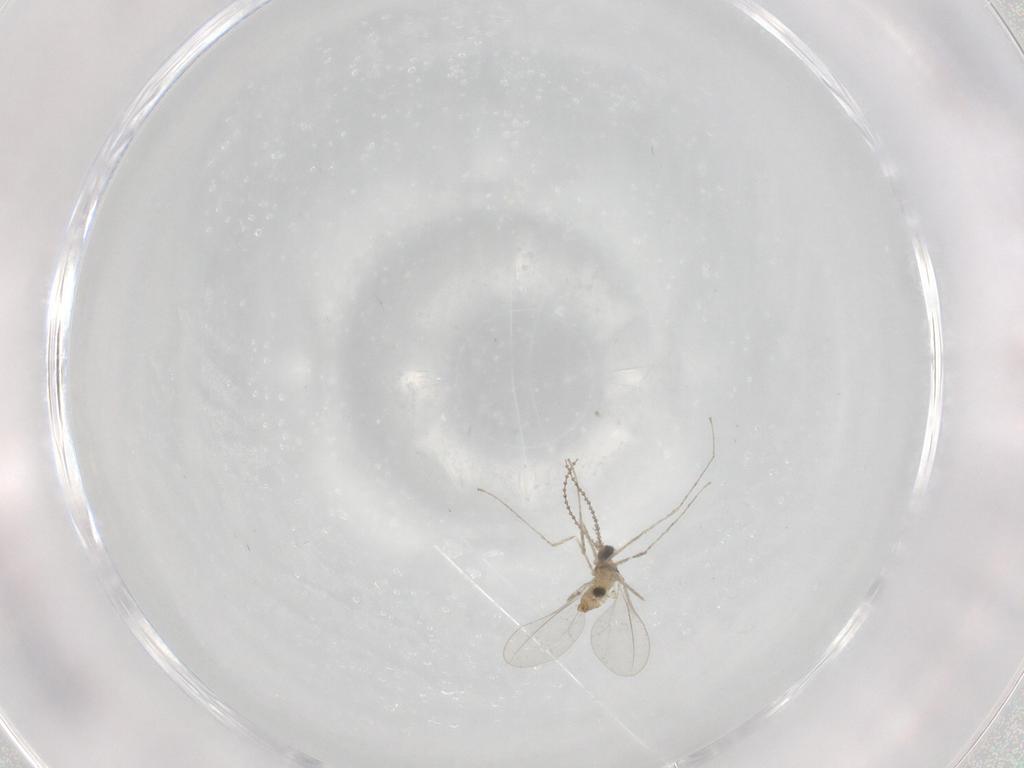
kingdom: Animalia
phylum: Arthropoda
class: Insecta
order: Diptera
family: Cecidomyiidae
